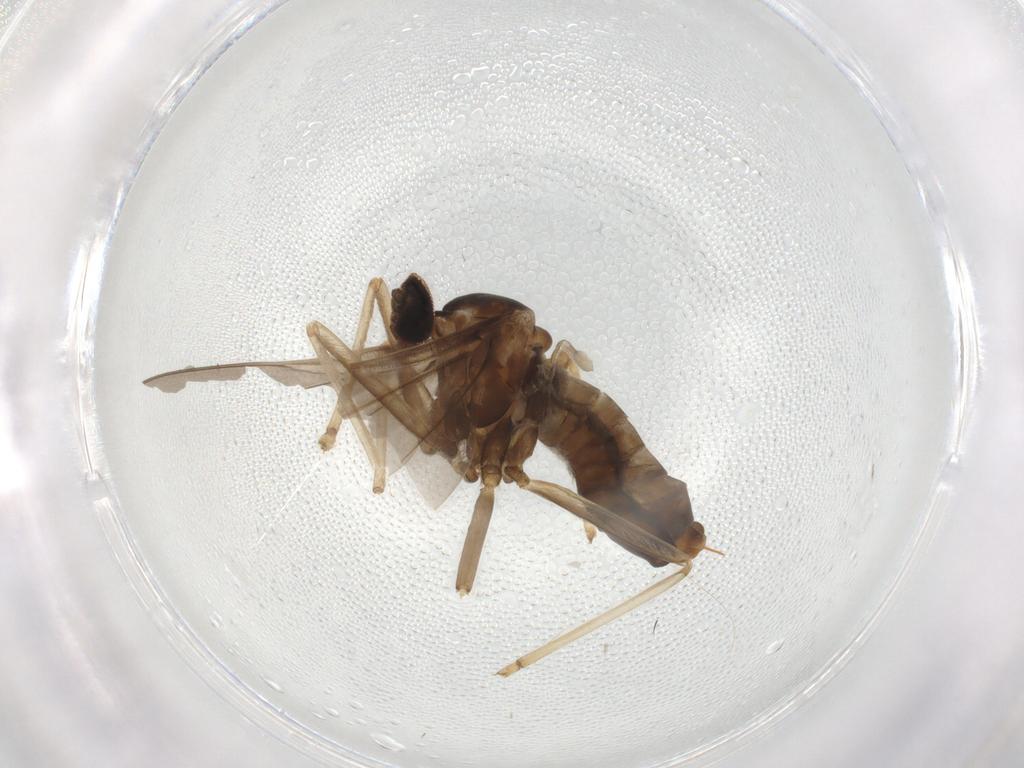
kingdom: Animalia
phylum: Arthropoda
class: Insecta
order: Diptera
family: Cecidomyiidae
